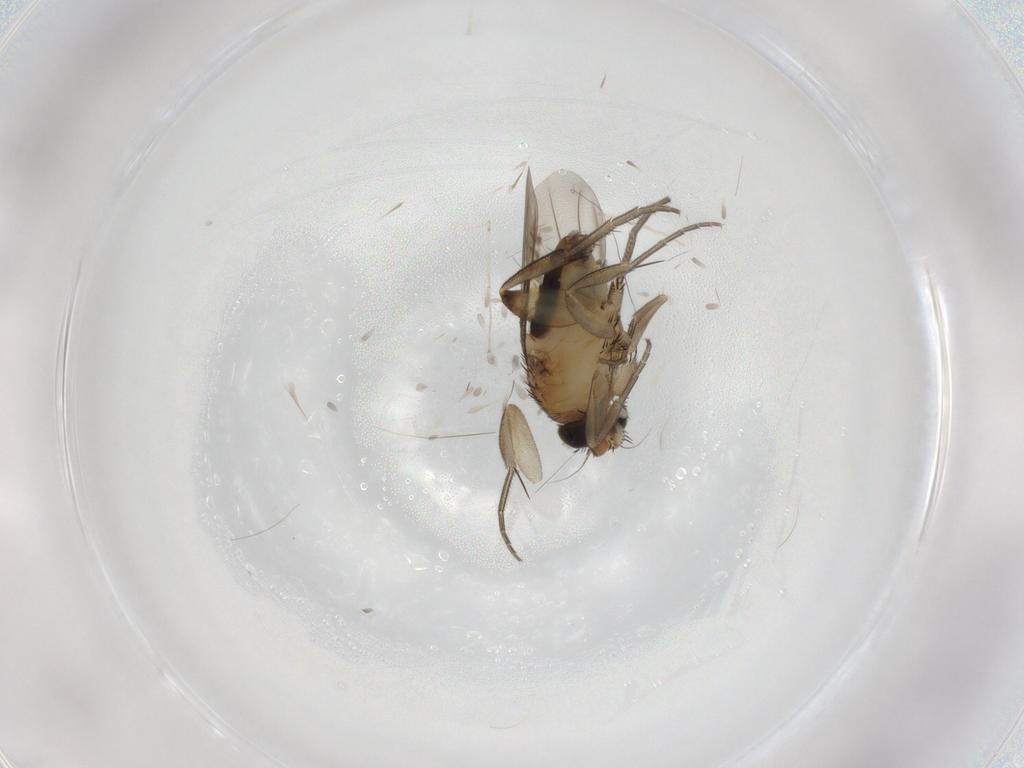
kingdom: Animalia
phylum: Arthropoda
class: Insecta
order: Diptera
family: Phoridae
